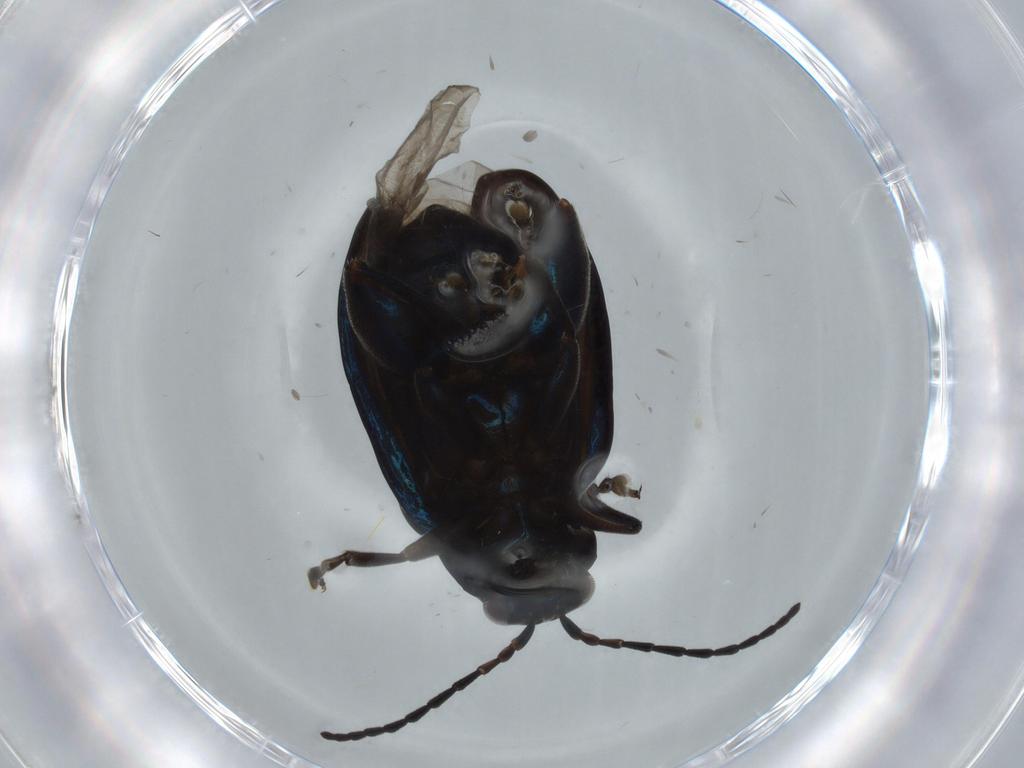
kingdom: Animalia
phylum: Arthropoda
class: Insecta
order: Coleoptera
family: Chrysomelidae
